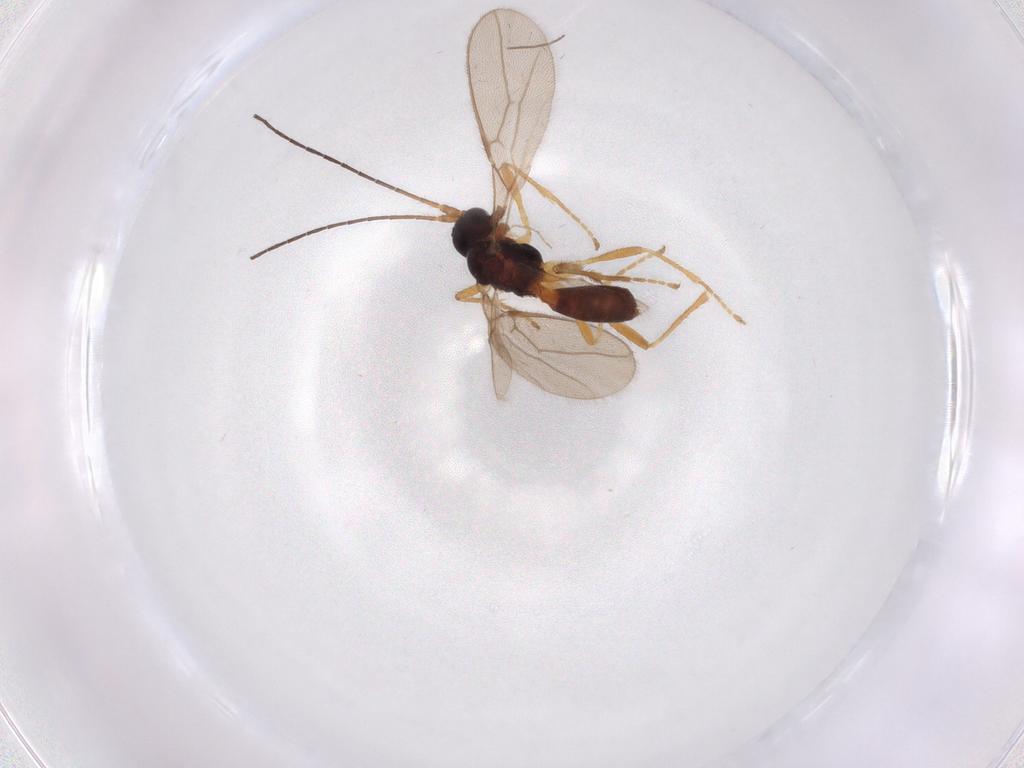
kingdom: Animalia
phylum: Arthropoda
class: Insecta
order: Hymenoptera
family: Braconidae
